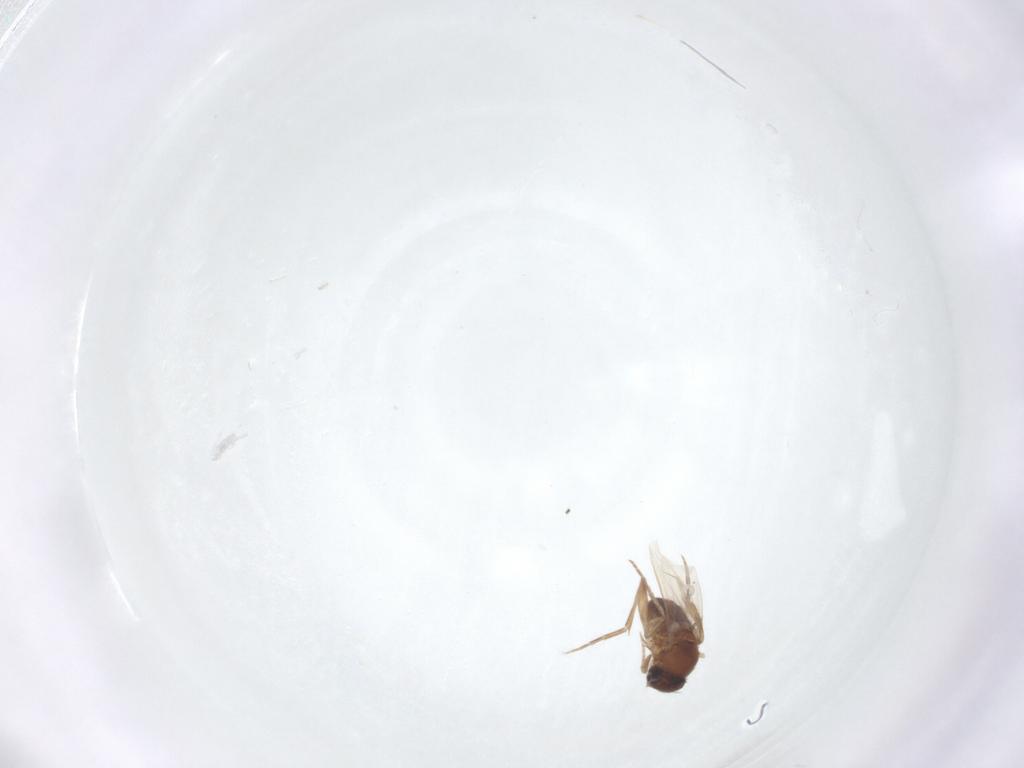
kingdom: Animalia
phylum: Arthropoda
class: Insecta
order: Diptera
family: Phoridae
